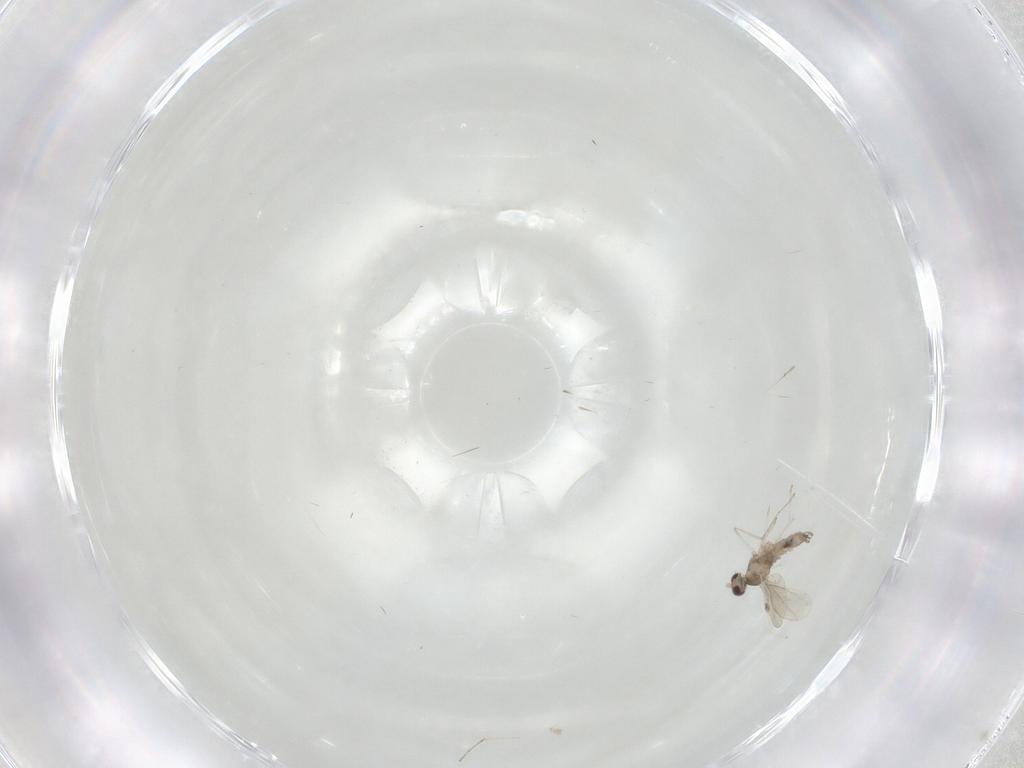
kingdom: Animalia
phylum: Arthropoda
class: Insecta
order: Diptera
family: Cecidomyiidae
